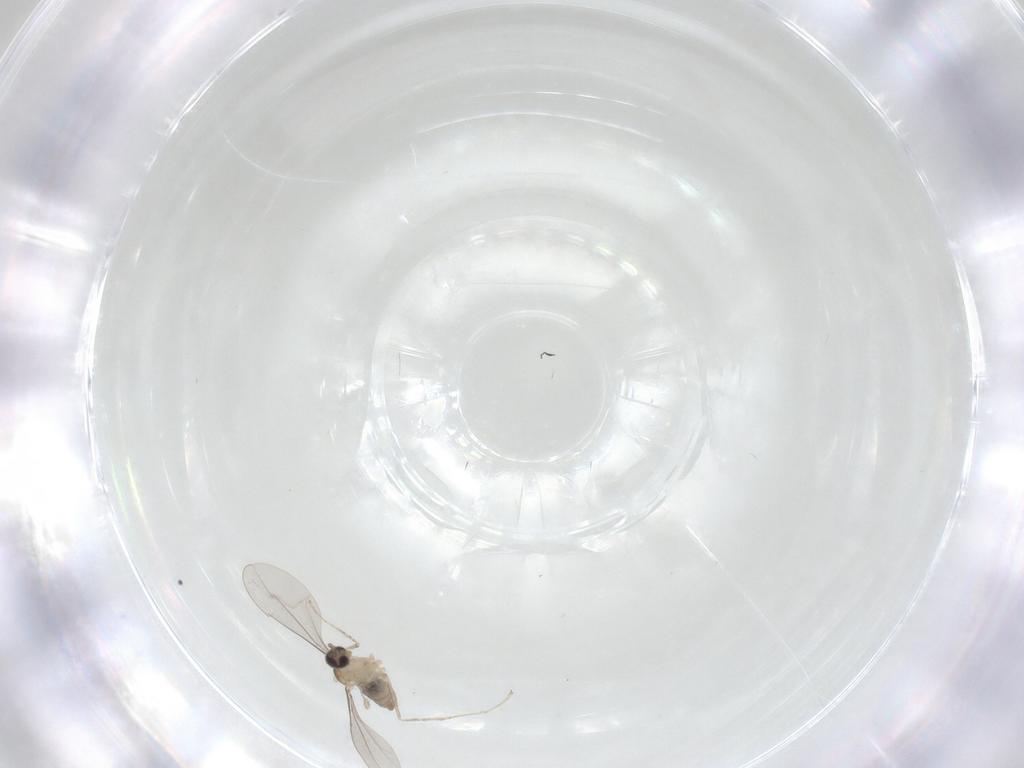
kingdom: Animalia
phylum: Arthropoda
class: Insecta
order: Diptera
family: Cecidomyiidae
